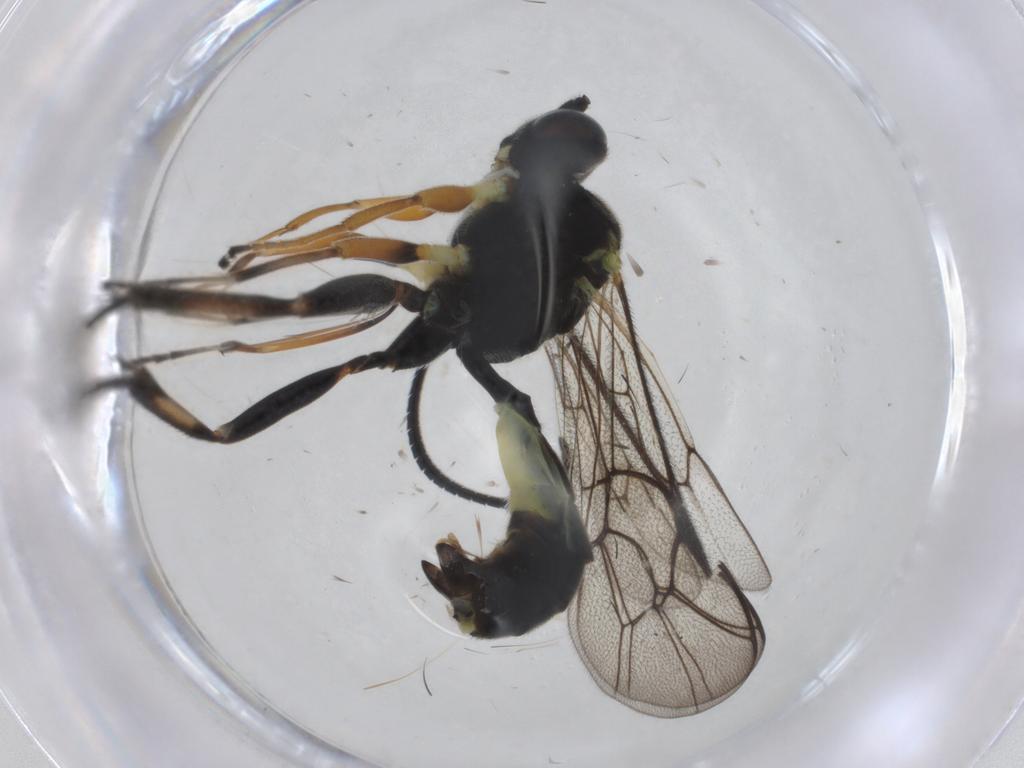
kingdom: Animalia
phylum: Arthropoda
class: Insecta
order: Hymenoptera
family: Ichneumonidae
